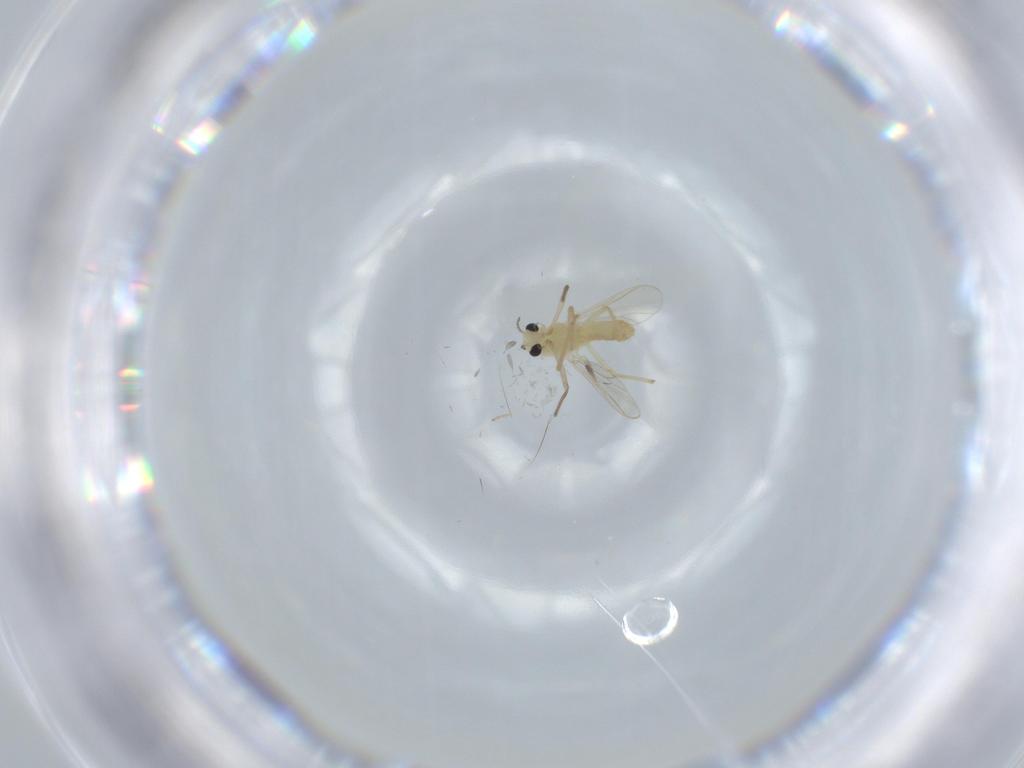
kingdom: Animalia
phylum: Arthropoda
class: Insecta
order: Diptera
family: Chironomidae
